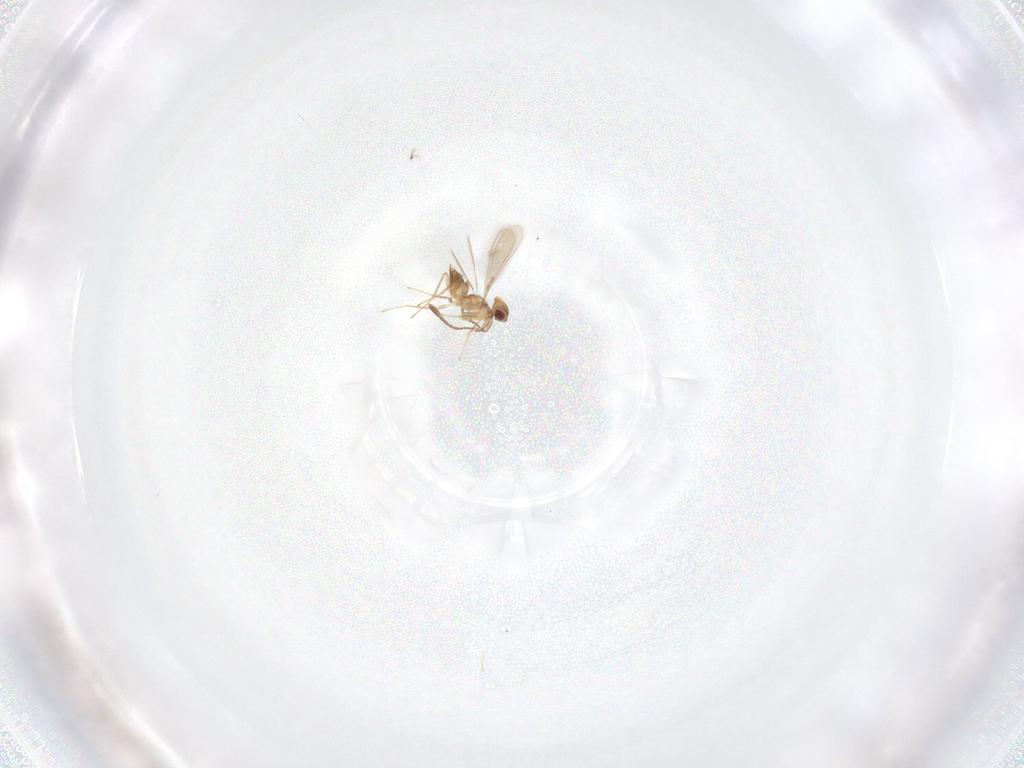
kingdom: Animalia
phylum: Arthropoda
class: Insecta
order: Hymenoptera
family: Mymaridae
